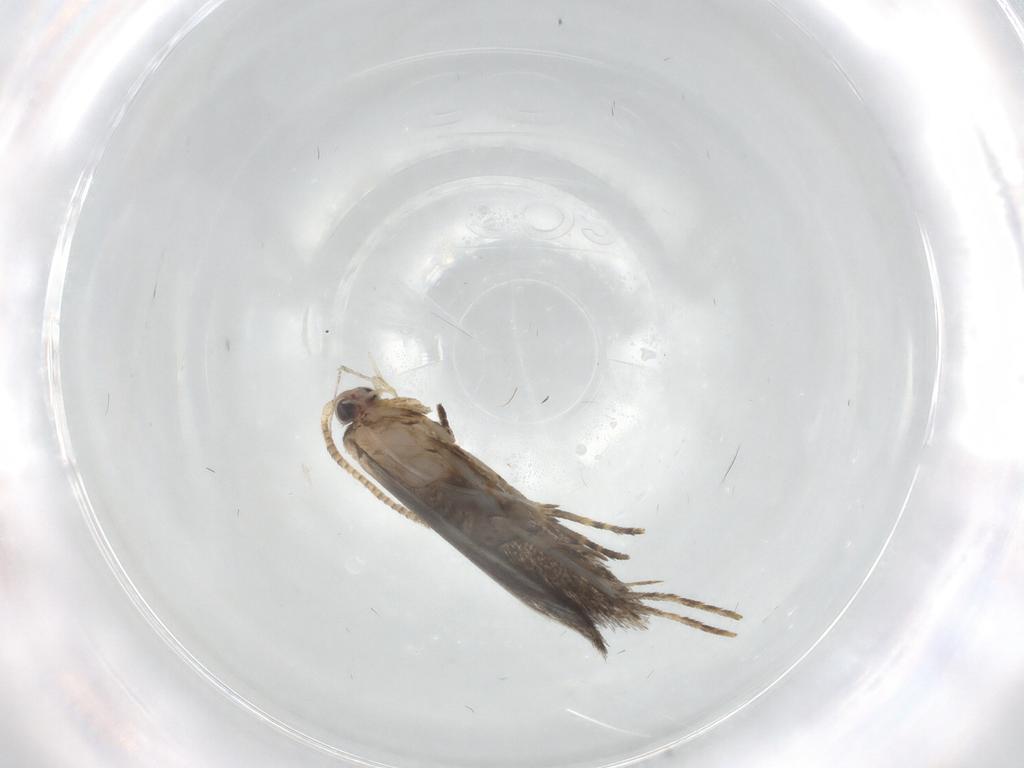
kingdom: Animalia
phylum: Arthropoda
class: Insecta
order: Lepidoptera
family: Tineidae
